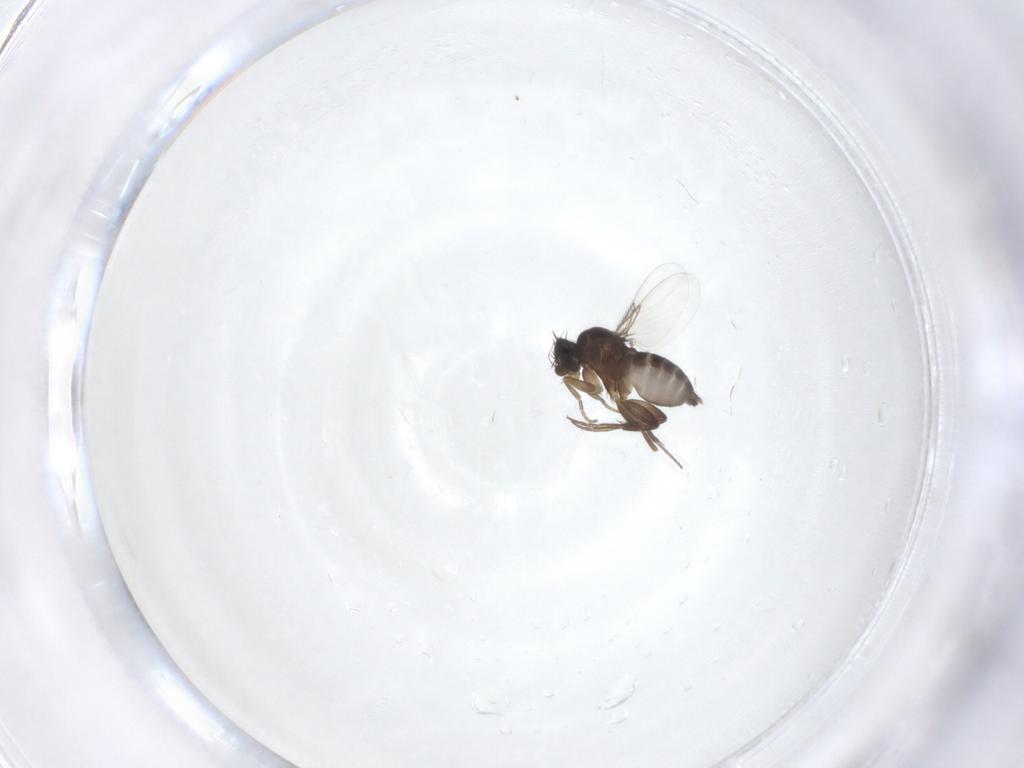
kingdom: Animalia
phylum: Arthropoda
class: Insecta
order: Diptera
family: Phoridae
